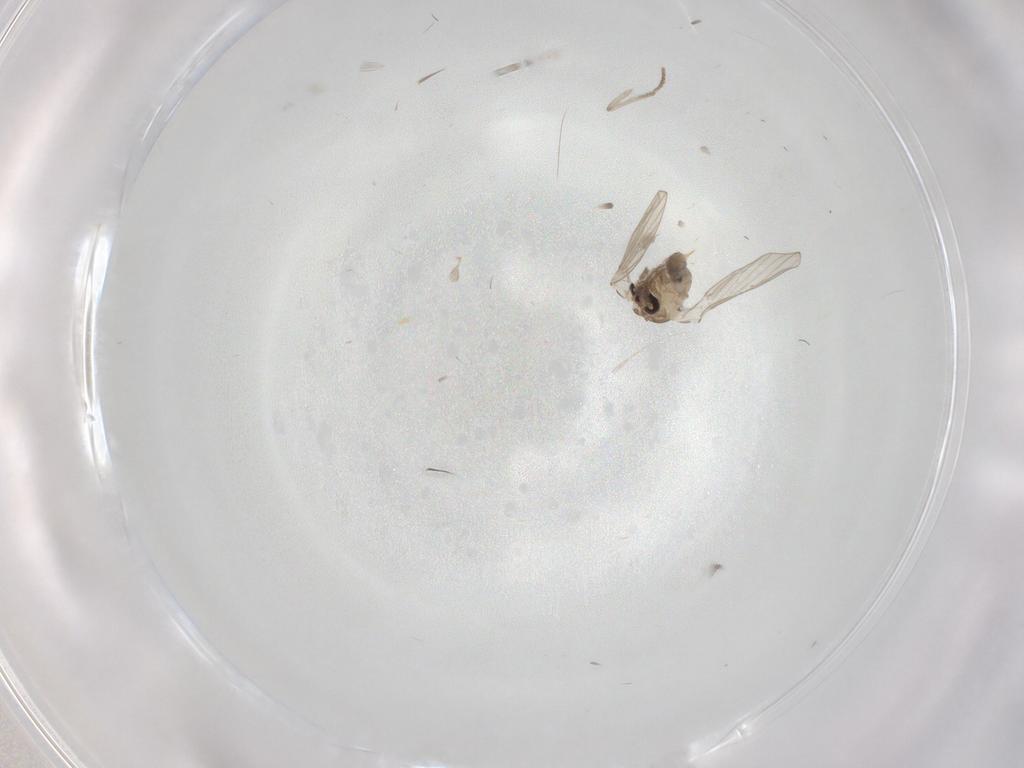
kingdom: Animalia
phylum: Arthropoda
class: Insecta
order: Diptera
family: Psychodidae
